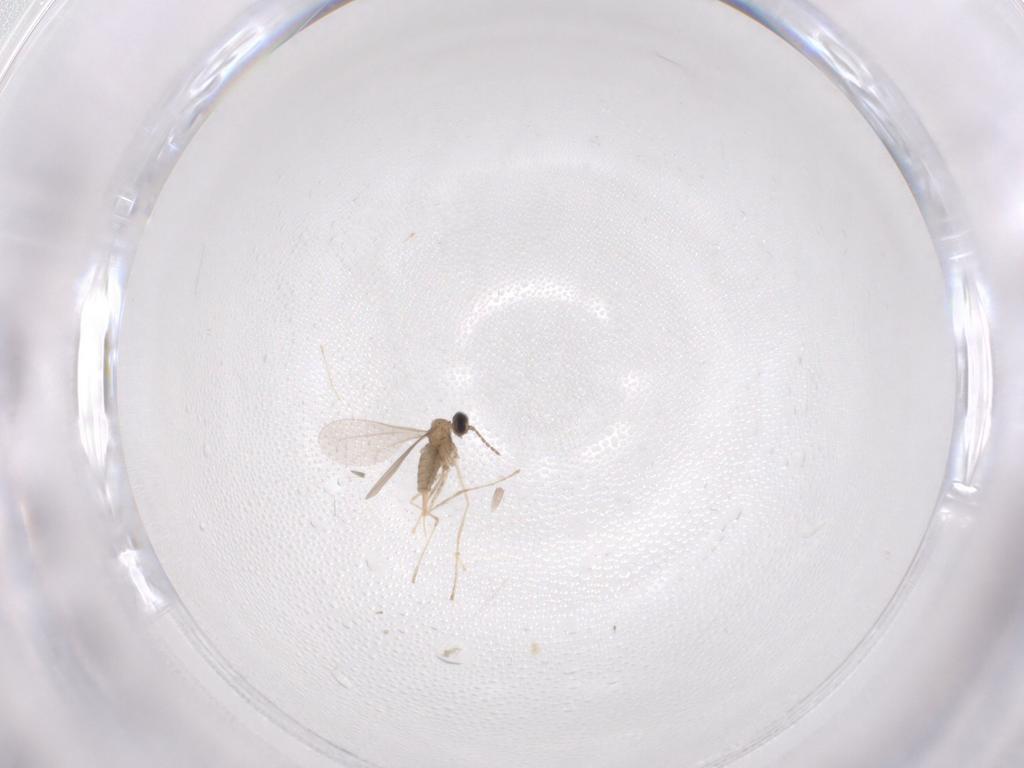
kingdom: Animalia
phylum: Arthropoda
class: Insecta
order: Diptera
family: Cecidomyiidae
